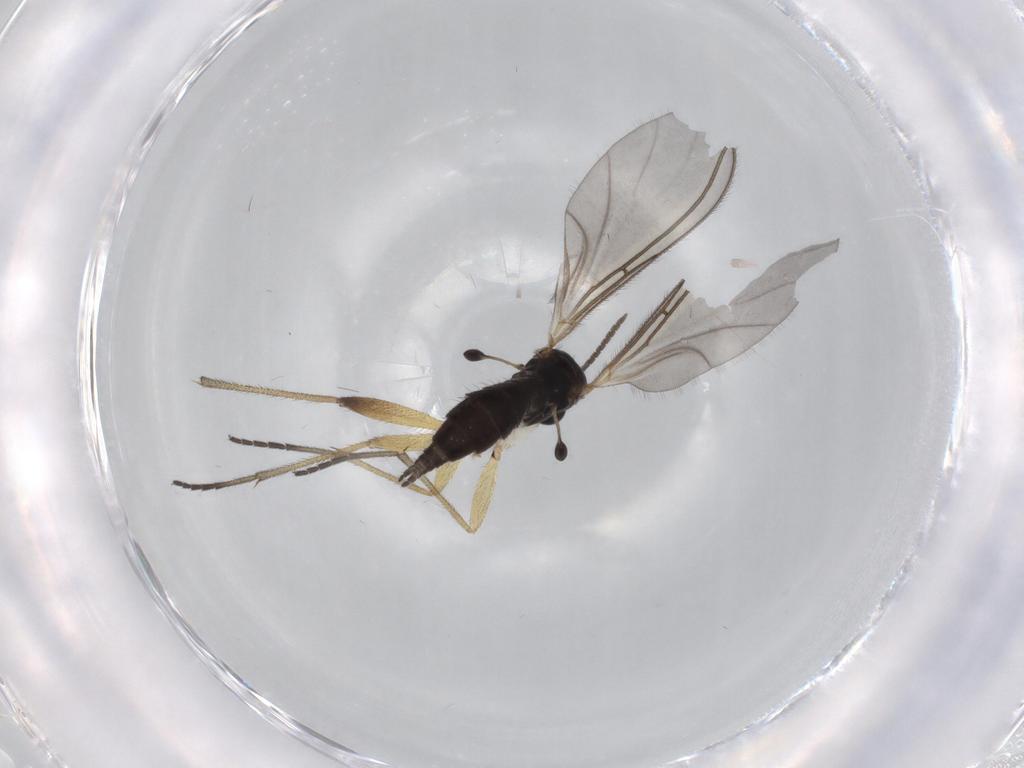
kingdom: Animalia
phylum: Arthropoda
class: Insecta
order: Diptera
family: Sciaridae
